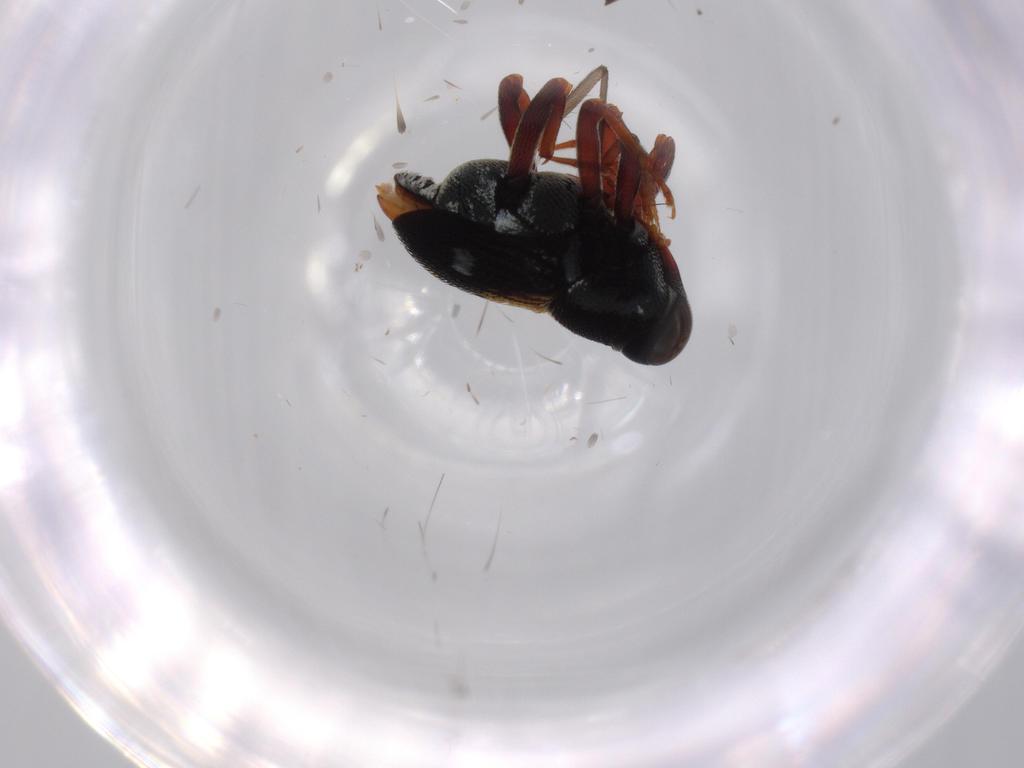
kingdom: Animalia
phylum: Arthropoda
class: Insecta
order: Coleoptera
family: Curculionidae
